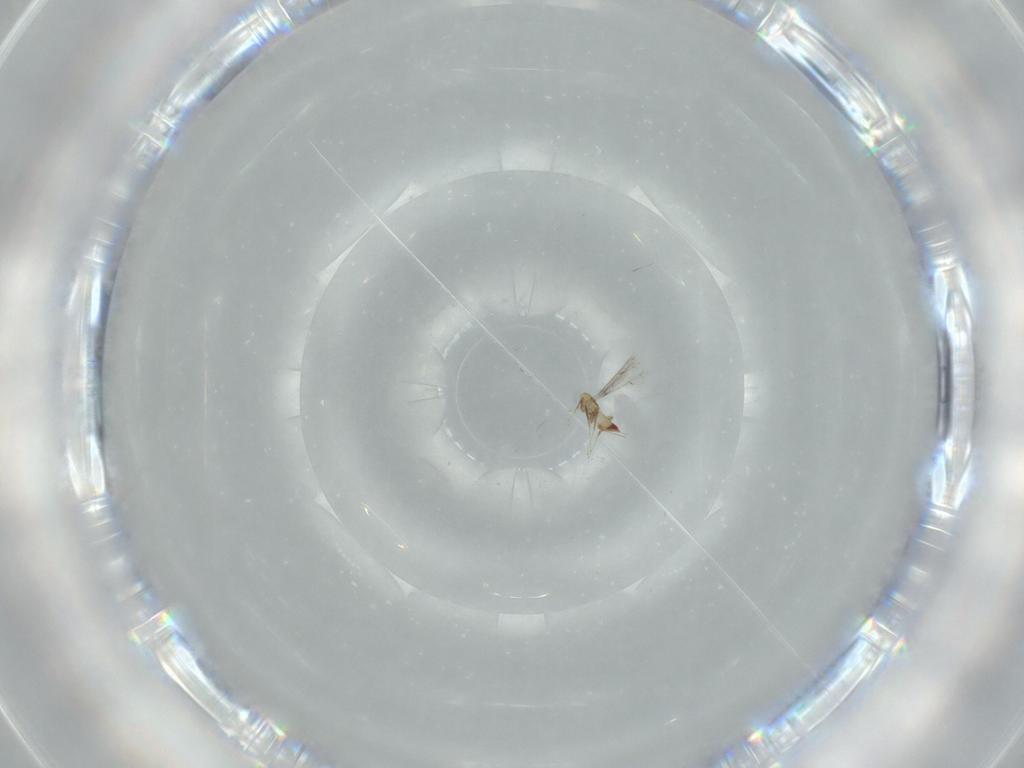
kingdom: Animalia
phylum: Arthropoda
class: Insecta
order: Hymenoptera
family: Mymaridae
